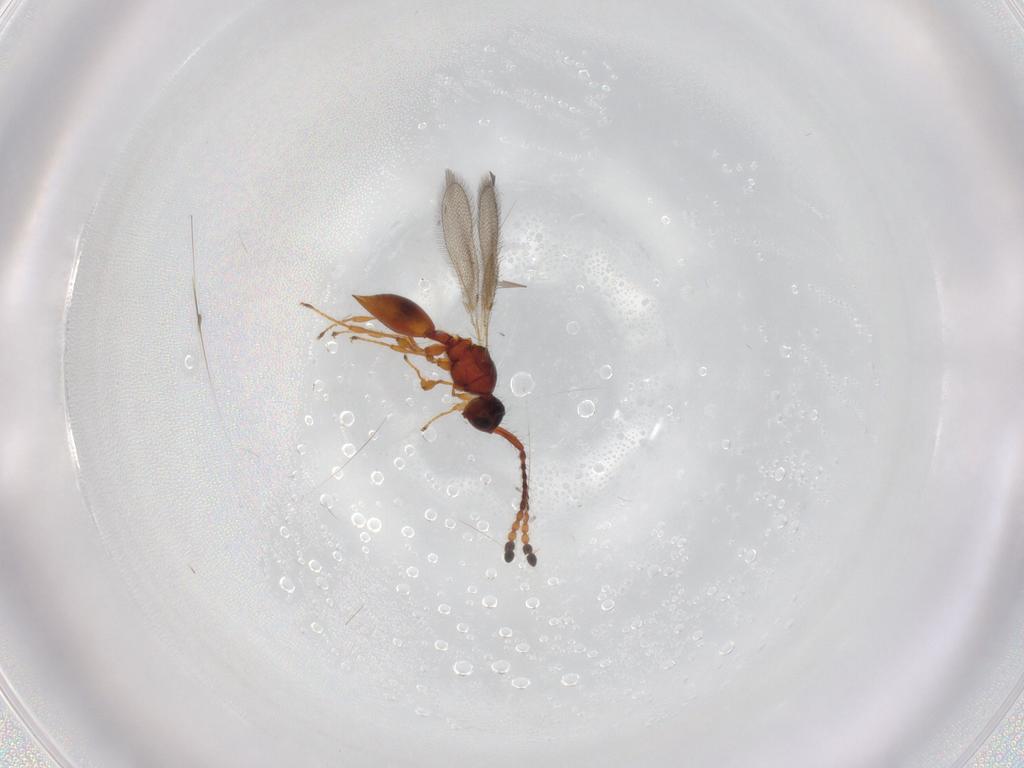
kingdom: Animalia
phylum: Arthropoda
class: Insecta
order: Hymenoptera
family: Diapriidae
